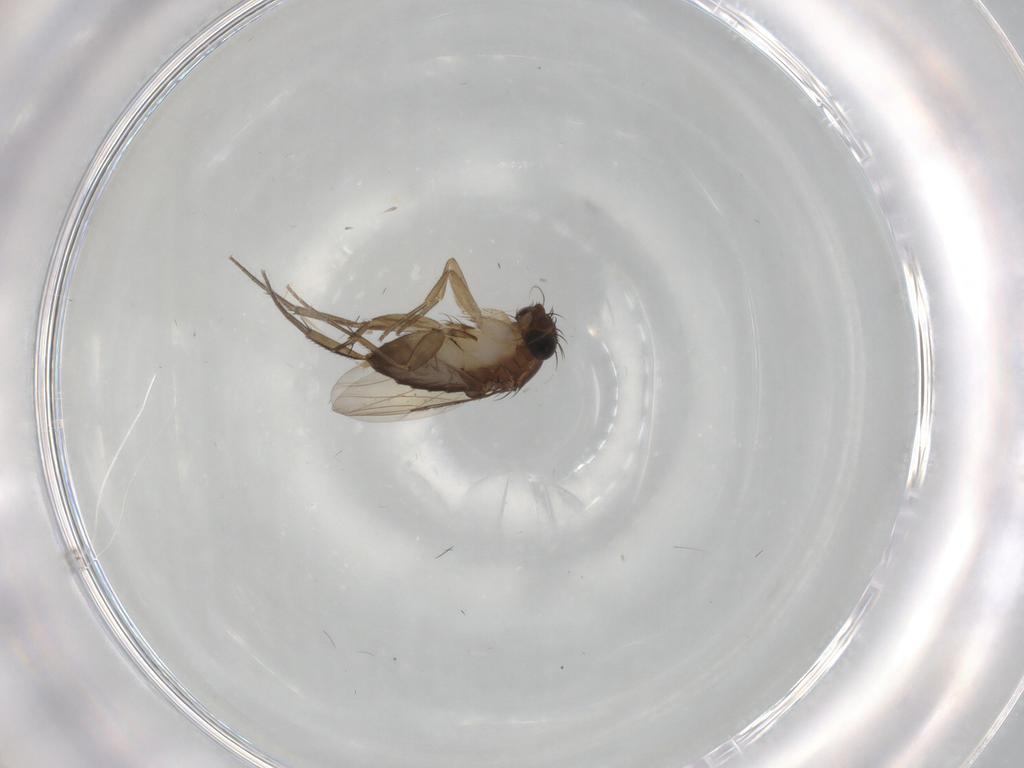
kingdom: Animalia
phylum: Arthropoda
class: Insecta
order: Diptera
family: Phoridae
